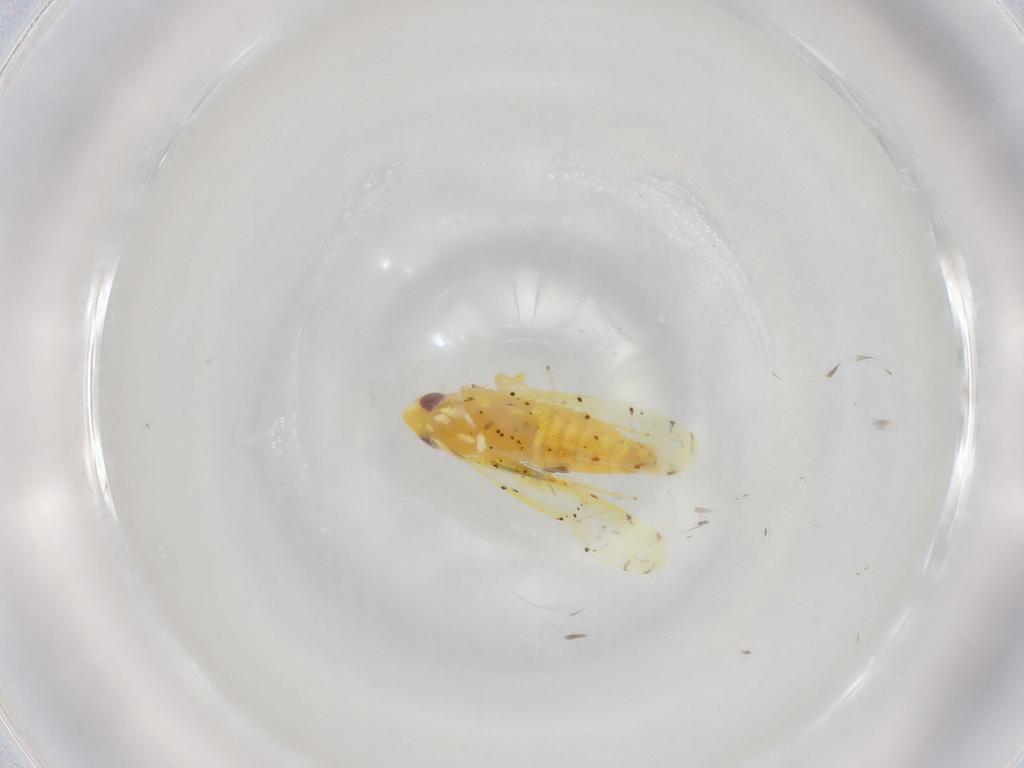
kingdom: Animalia
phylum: Arthropoda
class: Insecta
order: Hemiptera
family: Cicadellidae
